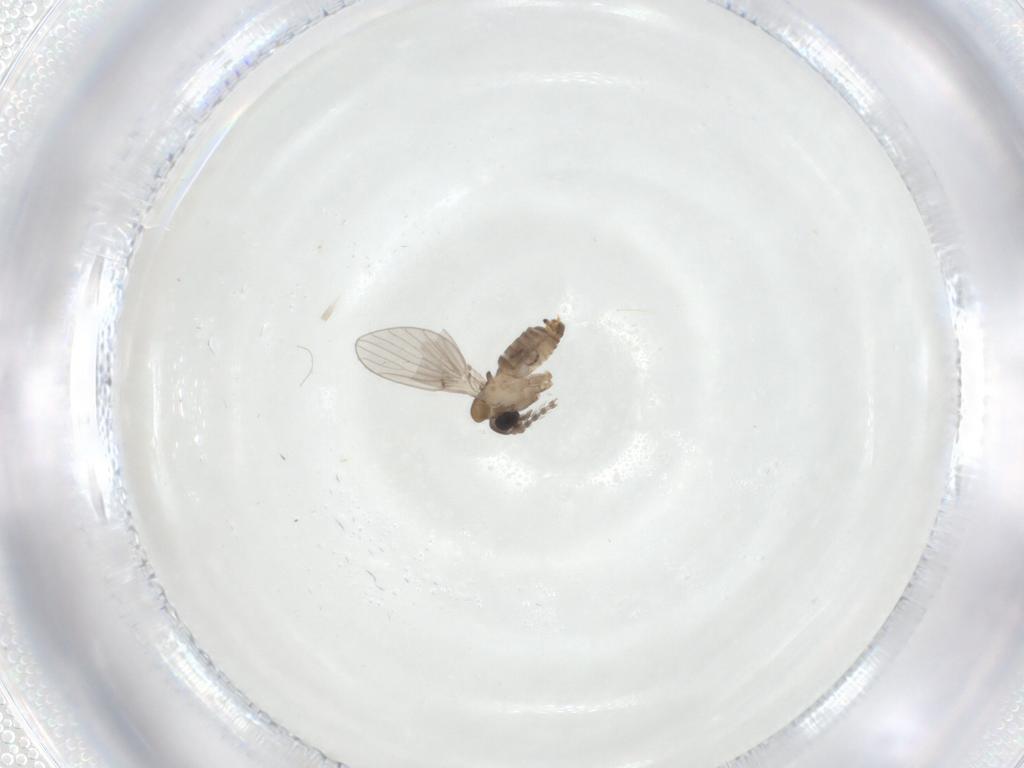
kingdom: Animalia
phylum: Arthropoda
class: Insecta
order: Diptera
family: Psychodidae
